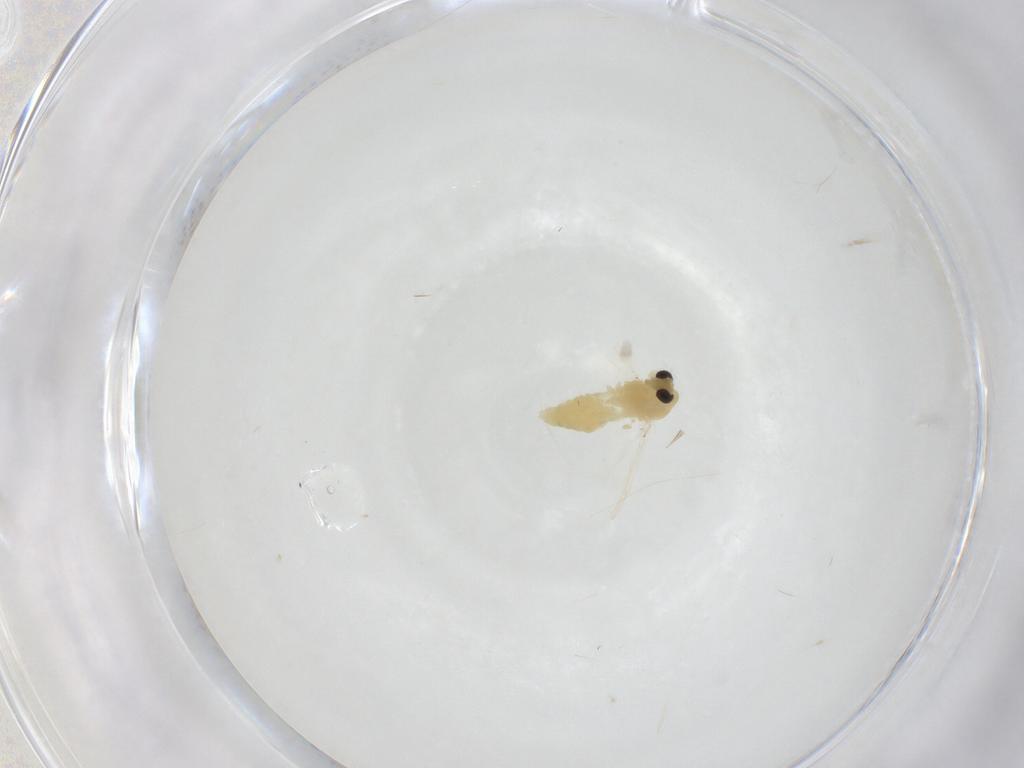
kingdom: Animalia
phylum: Arthropoda
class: Insecta
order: Diptera
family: Chironomidae
